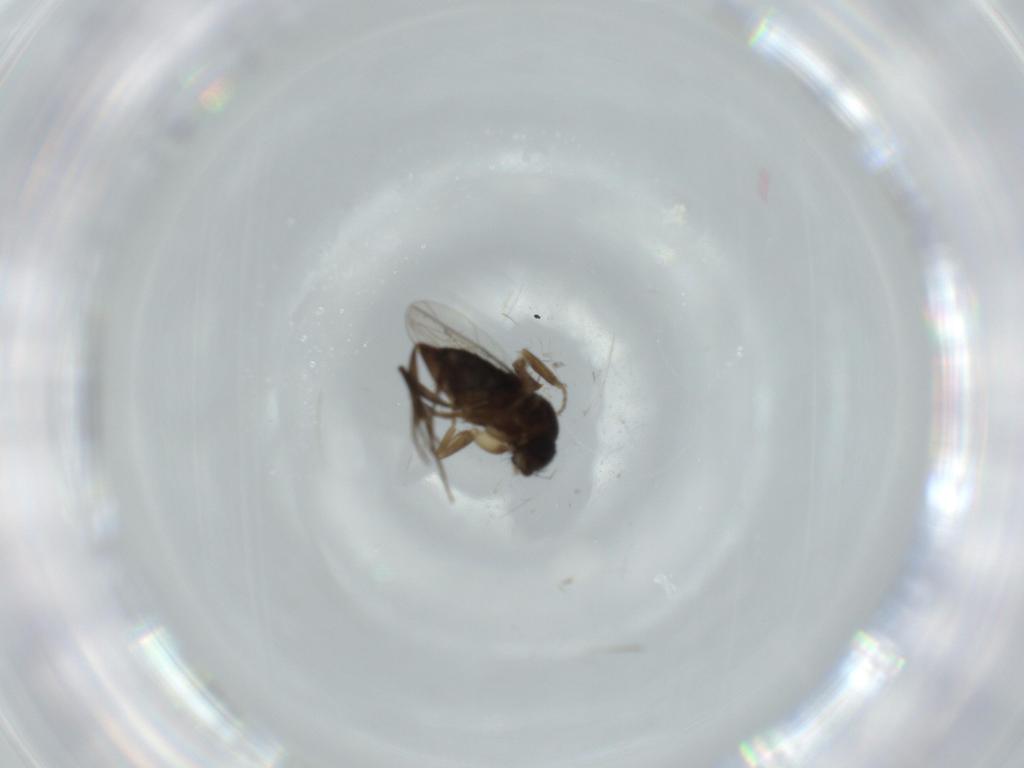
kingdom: Animalia
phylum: Arthropoda
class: Insecta
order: Diptera
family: Phoridae
